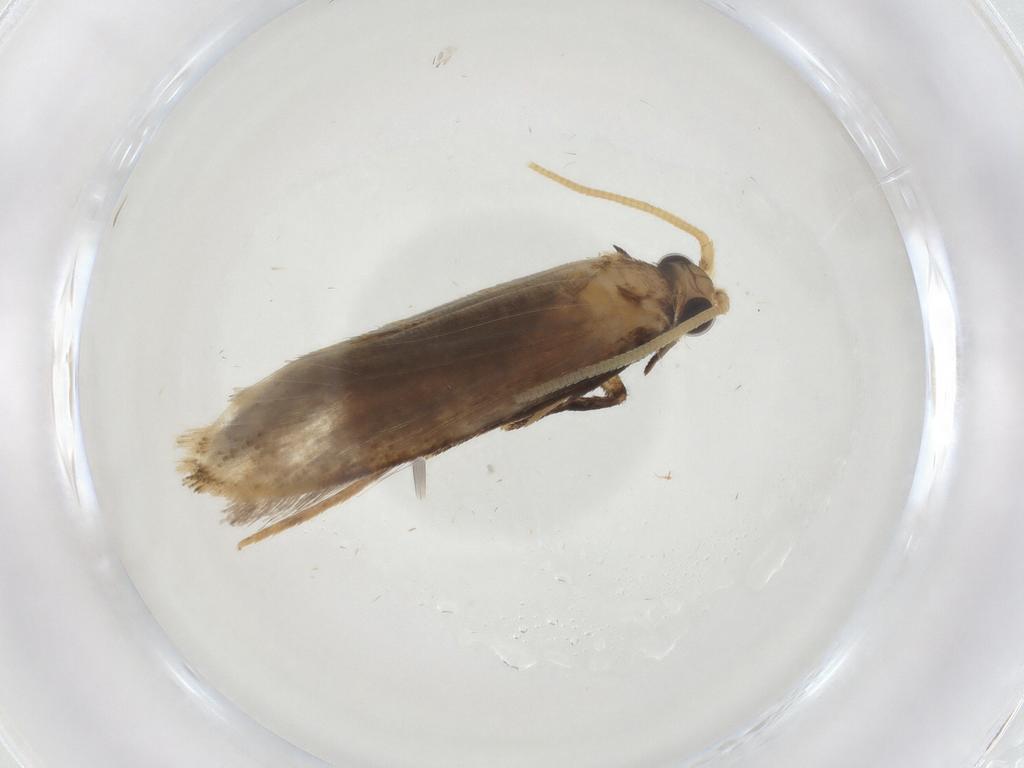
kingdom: Animalia
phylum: Arthropoda
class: Insecta
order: Lepidoptera
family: Tineidae
